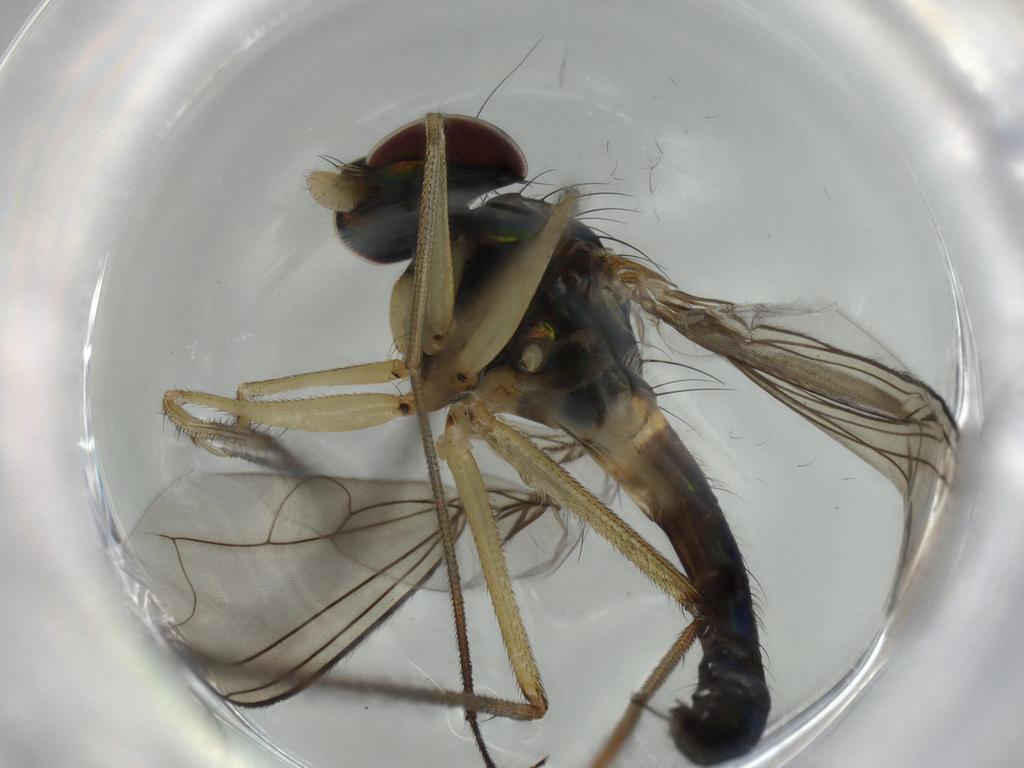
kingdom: Animalia
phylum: Arthropoda
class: Insecta
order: Diptera
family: Dolichopodidae
